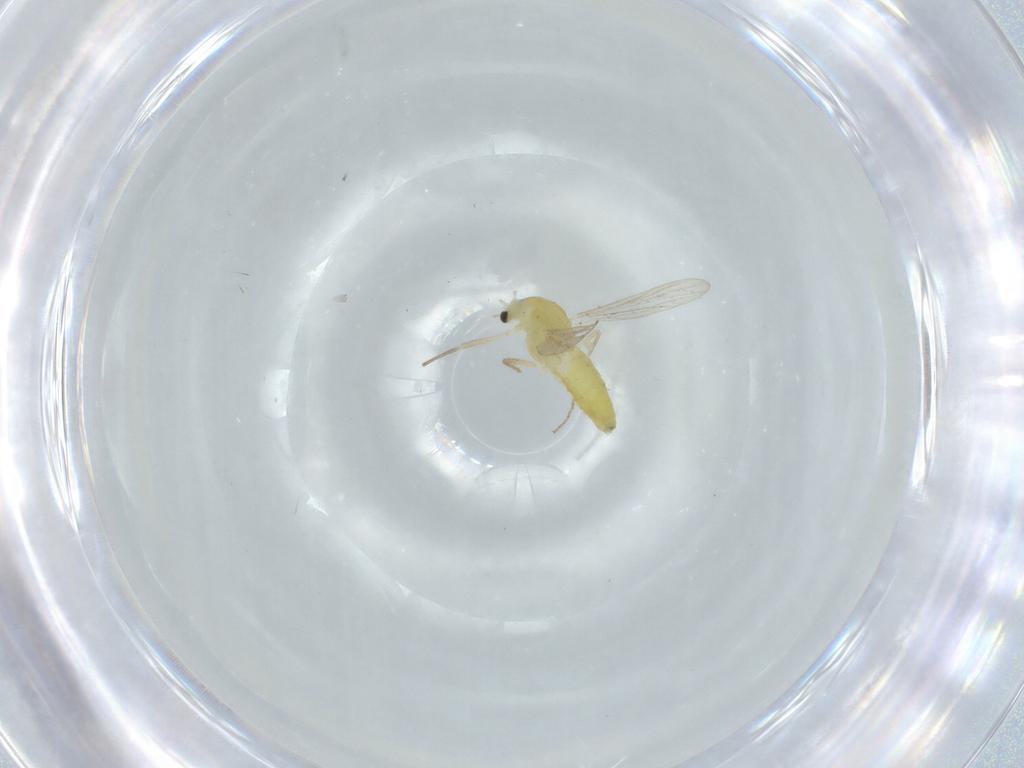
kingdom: Animalia
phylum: Arthropoda
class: Insecta
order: Diptera
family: Chironomidae
